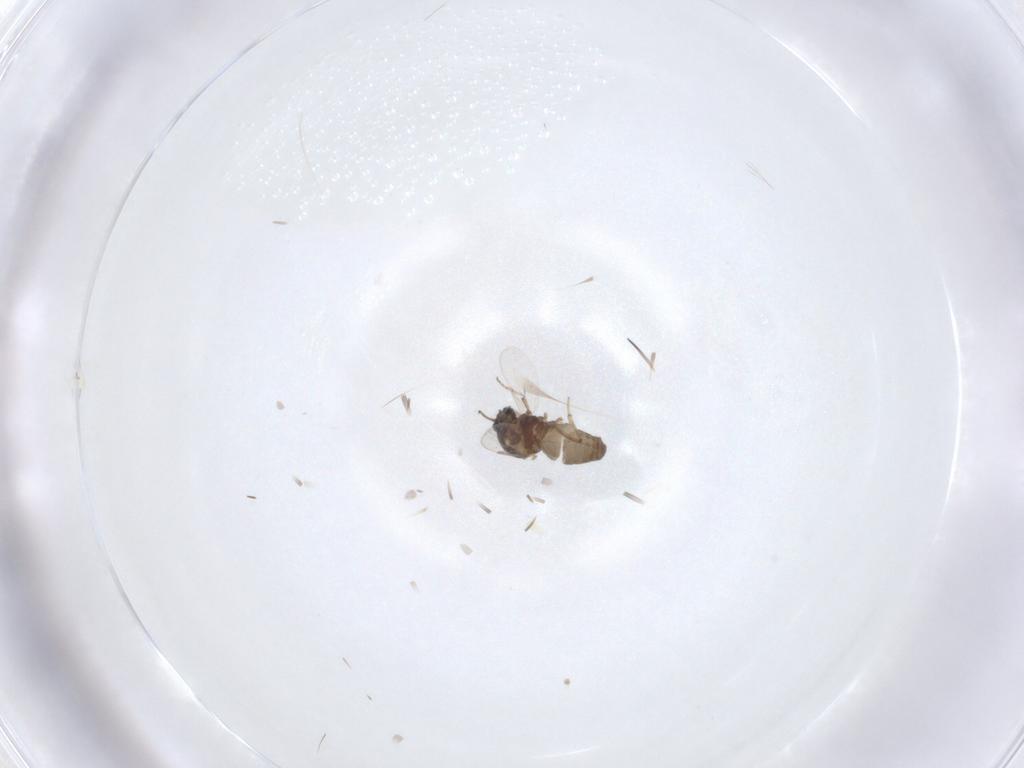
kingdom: Animalia
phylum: Arthropoda
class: Insecta
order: Diptera
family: Ceratopogonidae
